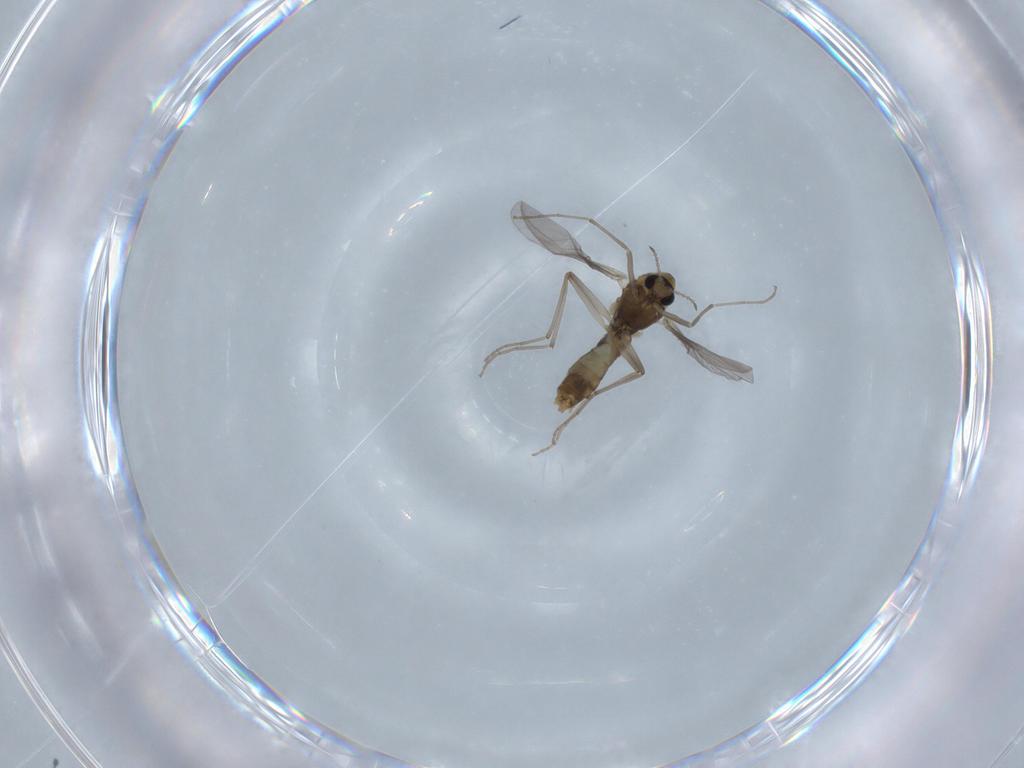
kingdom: Animalia
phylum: Arthropoda
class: Insecta
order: Diptera
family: Chironomidae
